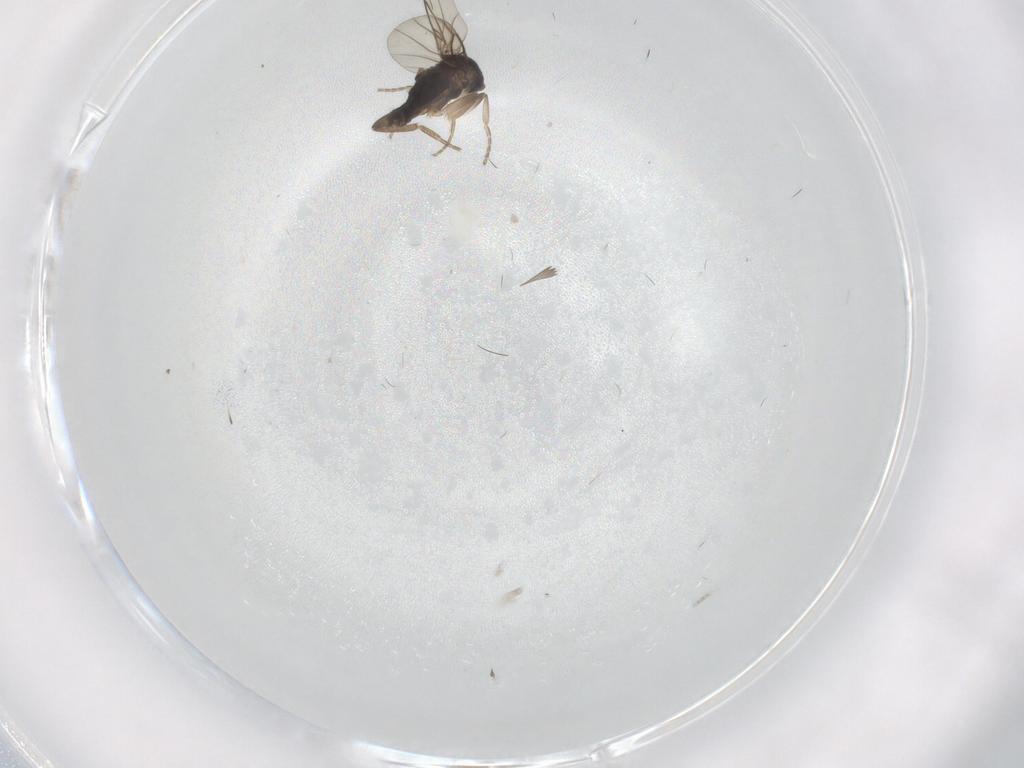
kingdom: Animalia
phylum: Arthropoda
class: Insecta
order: Diptera
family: Phoridae
